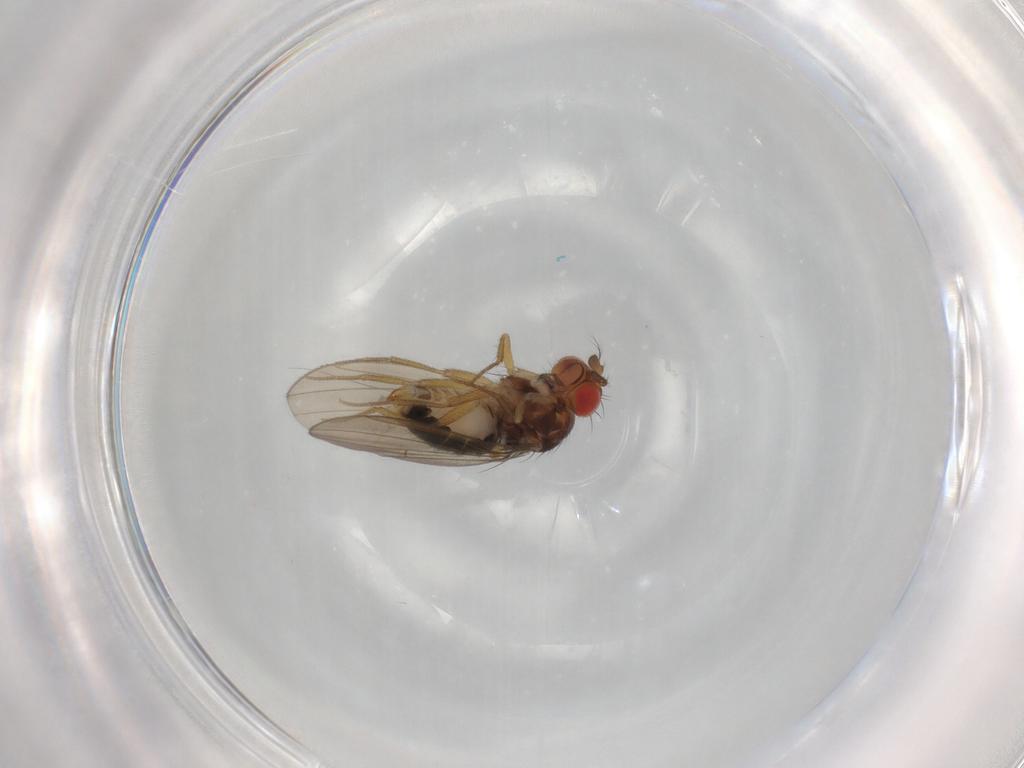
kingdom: Animalia
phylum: Arthropoda
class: Insecta
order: Diptera
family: Drosophilidae
